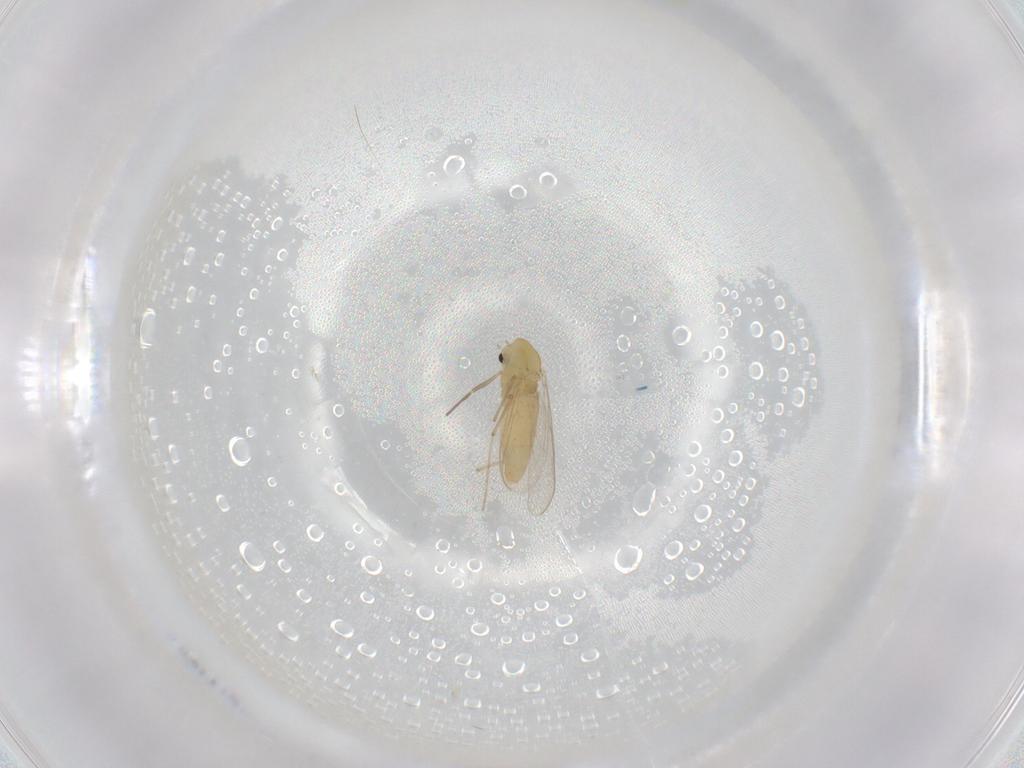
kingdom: Animalia
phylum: Arthropoda
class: Insecta
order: Diptera
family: Chironomidae
